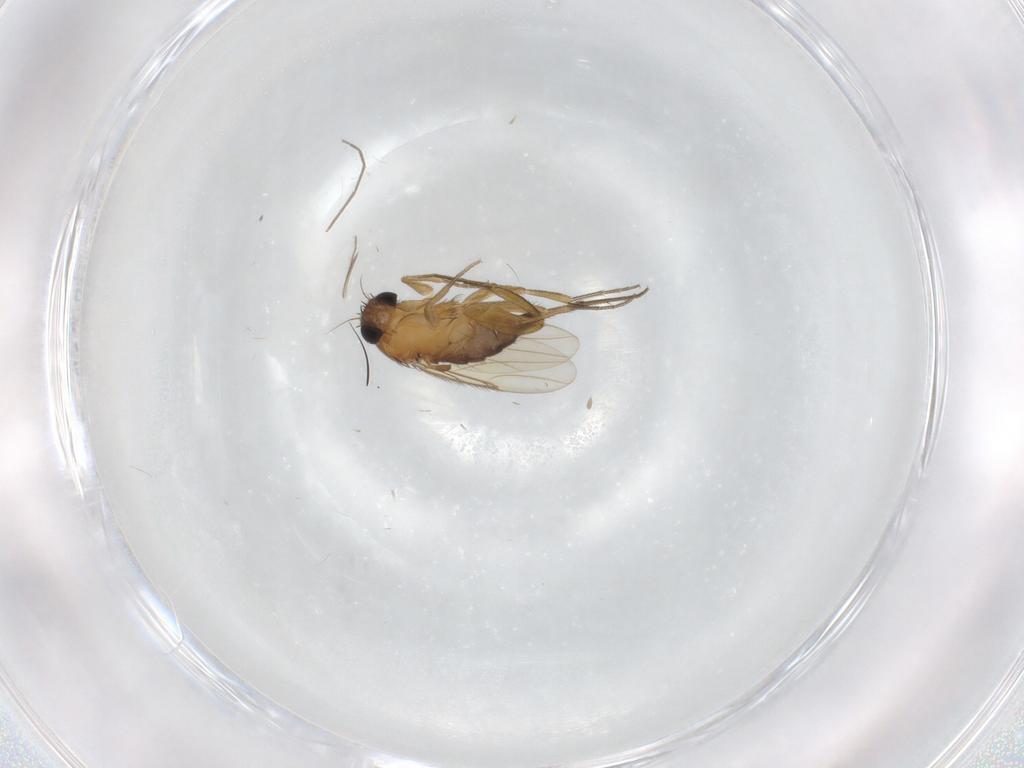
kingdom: Animalia
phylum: Arthropoda
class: Insecta
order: Diptera
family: Phoridae
